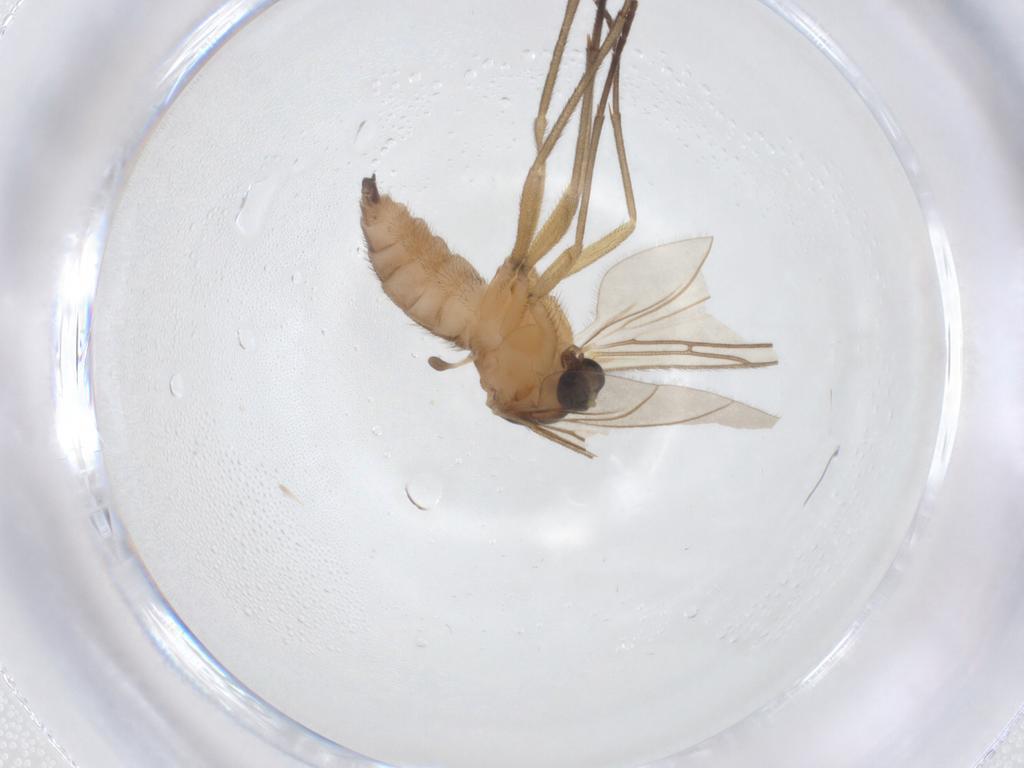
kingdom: Animalia
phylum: Arthropoda
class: Insecta
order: Diptera
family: Sciaridae
